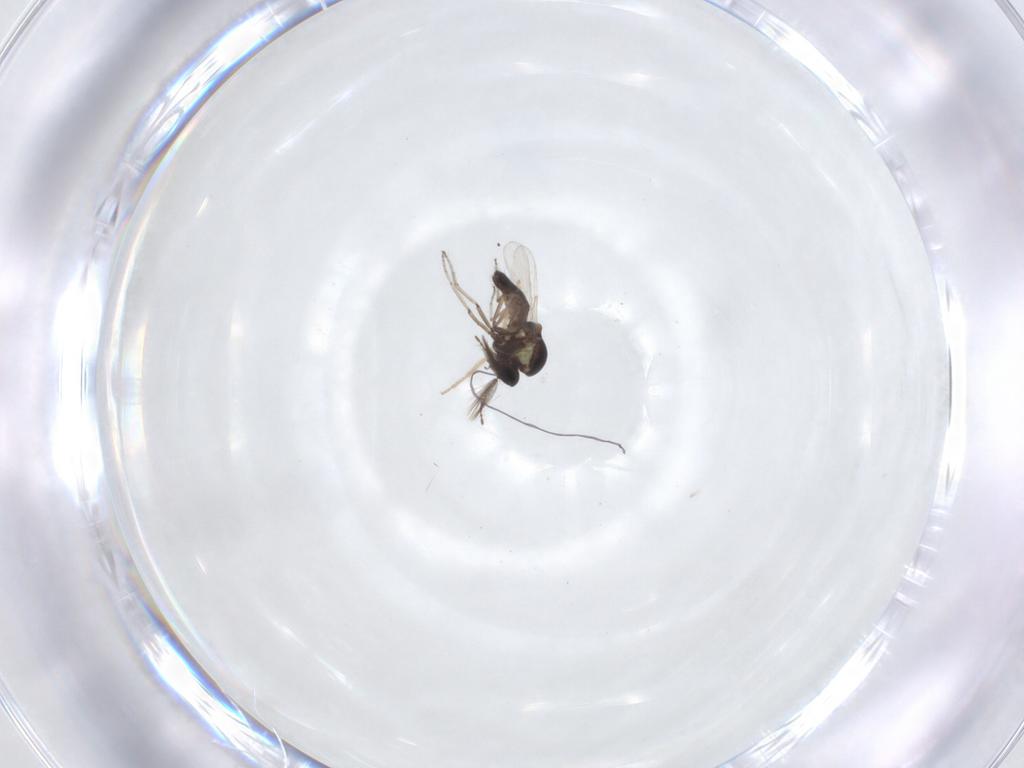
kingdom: Animalia
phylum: Arthropoda
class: Insecta
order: Diptera
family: Ceratopogonidae
